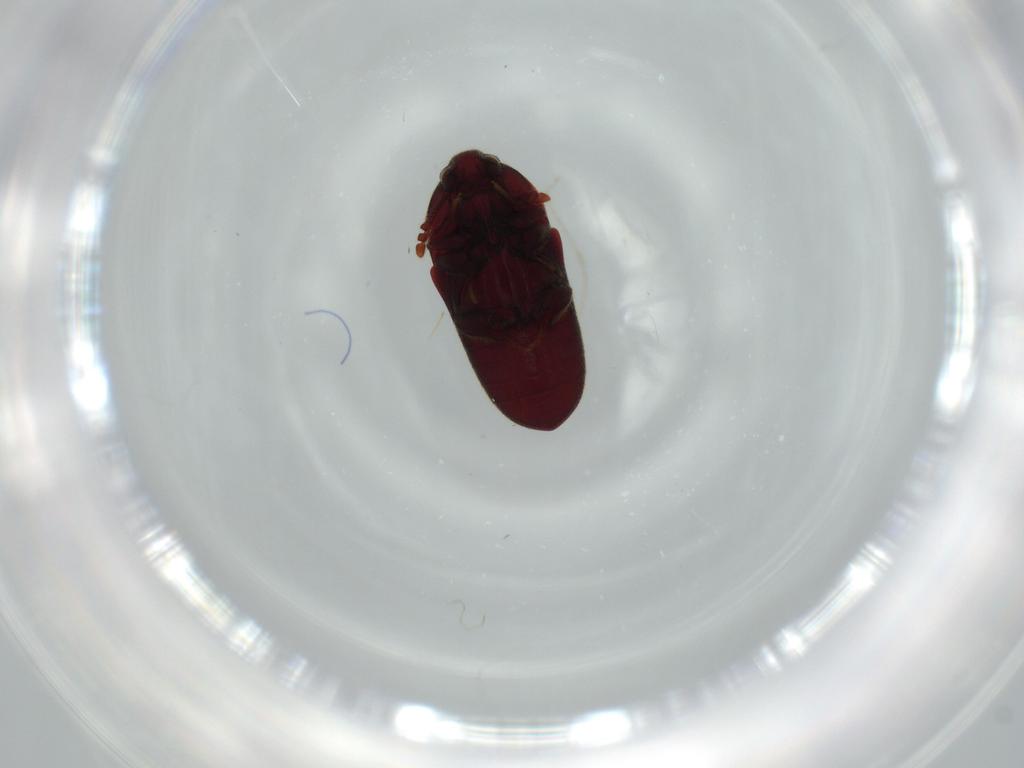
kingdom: Animalia
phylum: Arthropoda
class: Insecta
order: Coleoptera
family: Throscidae
